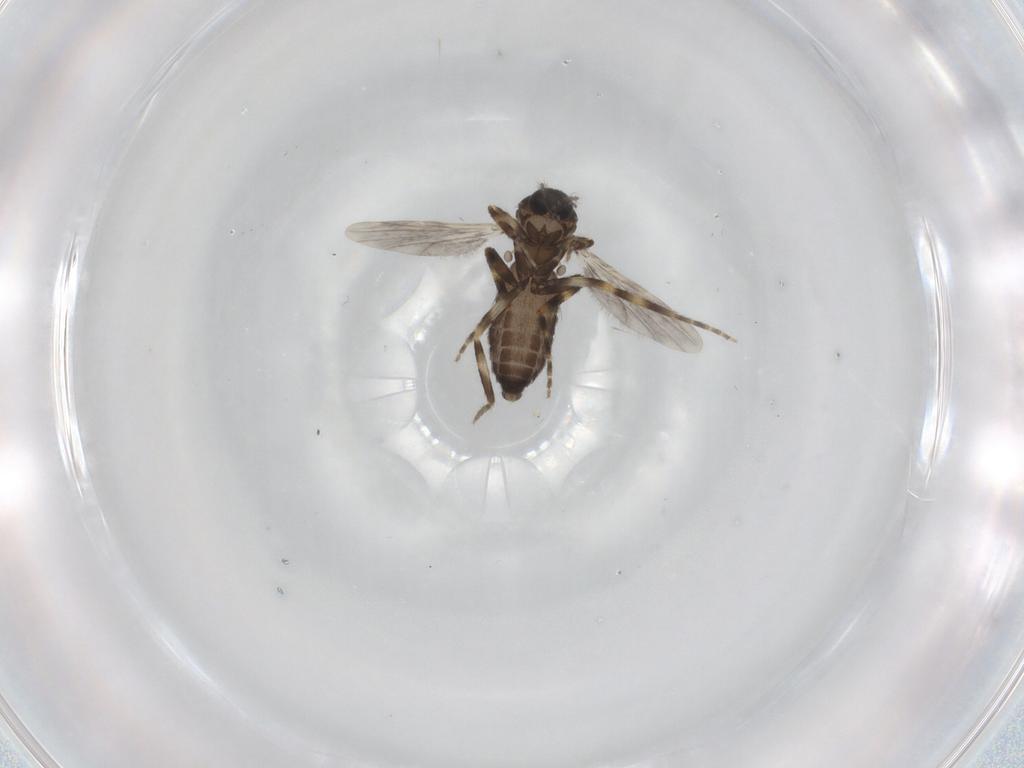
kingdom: Animalia
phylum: Arthropoda
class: Insecta
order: Diptera
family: Ceratopogonidae
